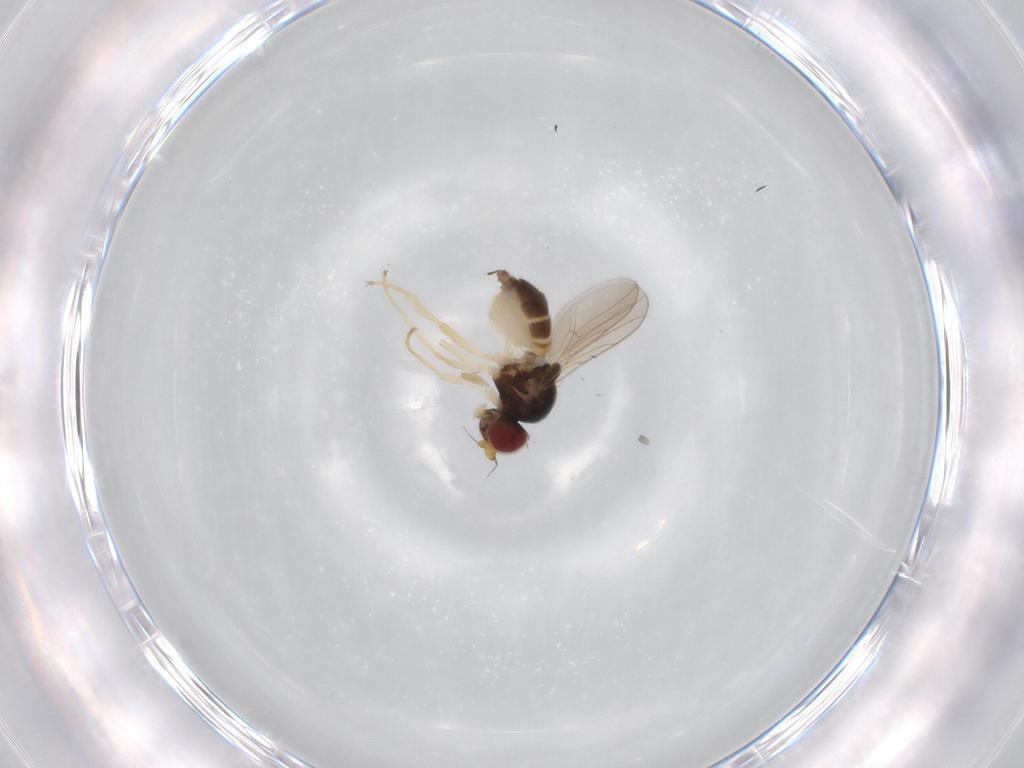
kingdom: Animalia
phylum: Arthropoda
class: Insecta
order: Diptera
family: Chloropidae
